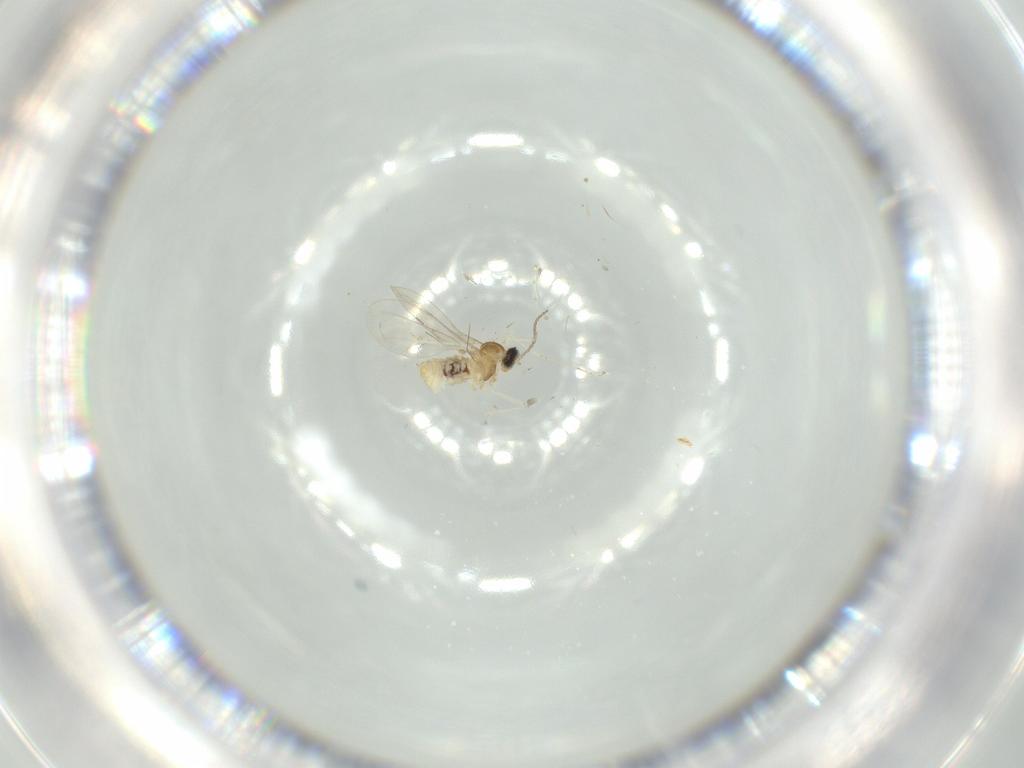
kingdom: Animalia
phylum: Arthropoda
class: Insecta
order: Diptera
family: Cecidomyiidae
